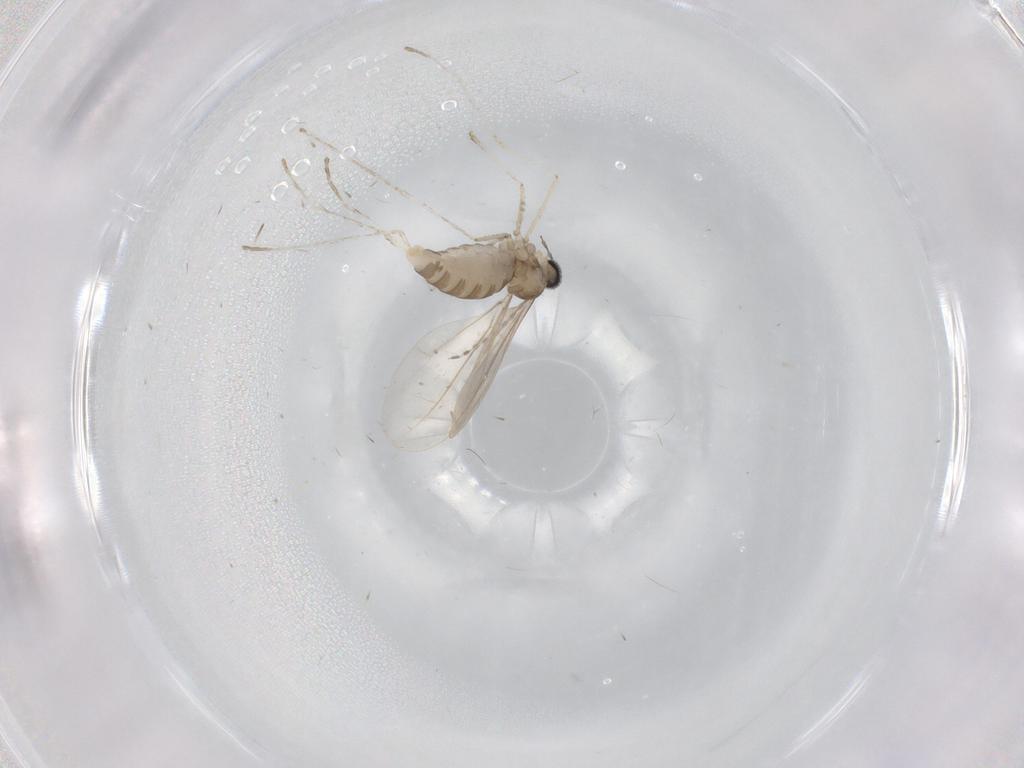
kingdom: Animalia
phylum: Arthropoda
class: Insecta
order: Diptera
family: Cecidomyiidae
